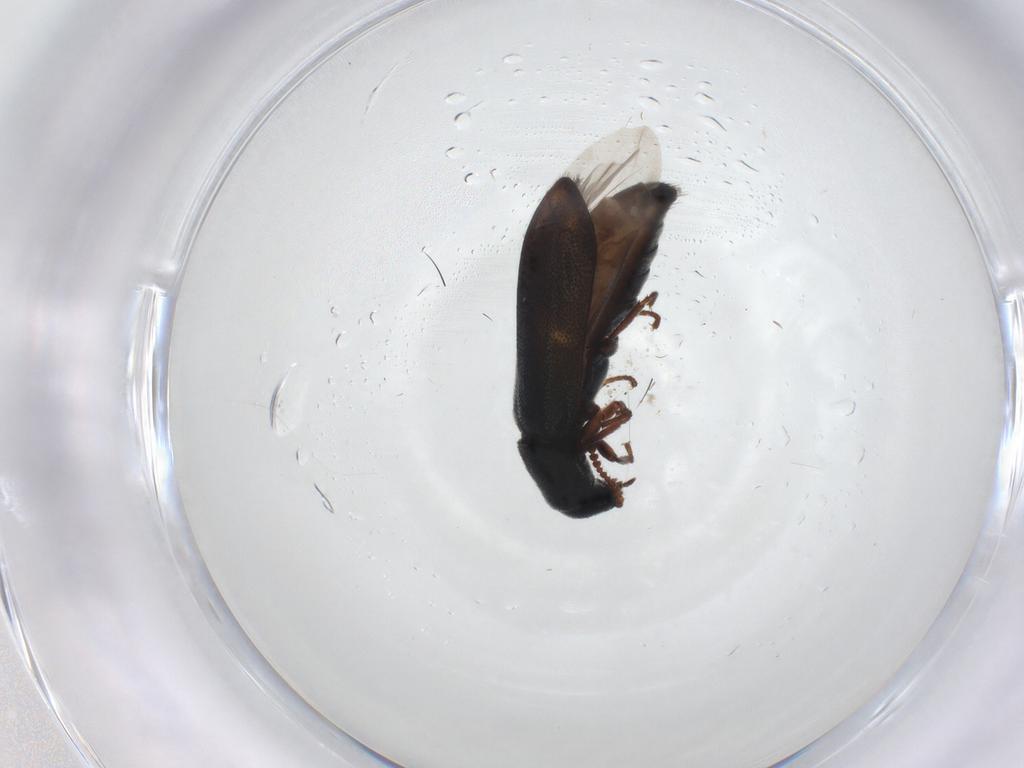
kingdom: Animalia
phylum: Arthropoda
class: Insecta
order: Coleoptera
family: Melyridae
